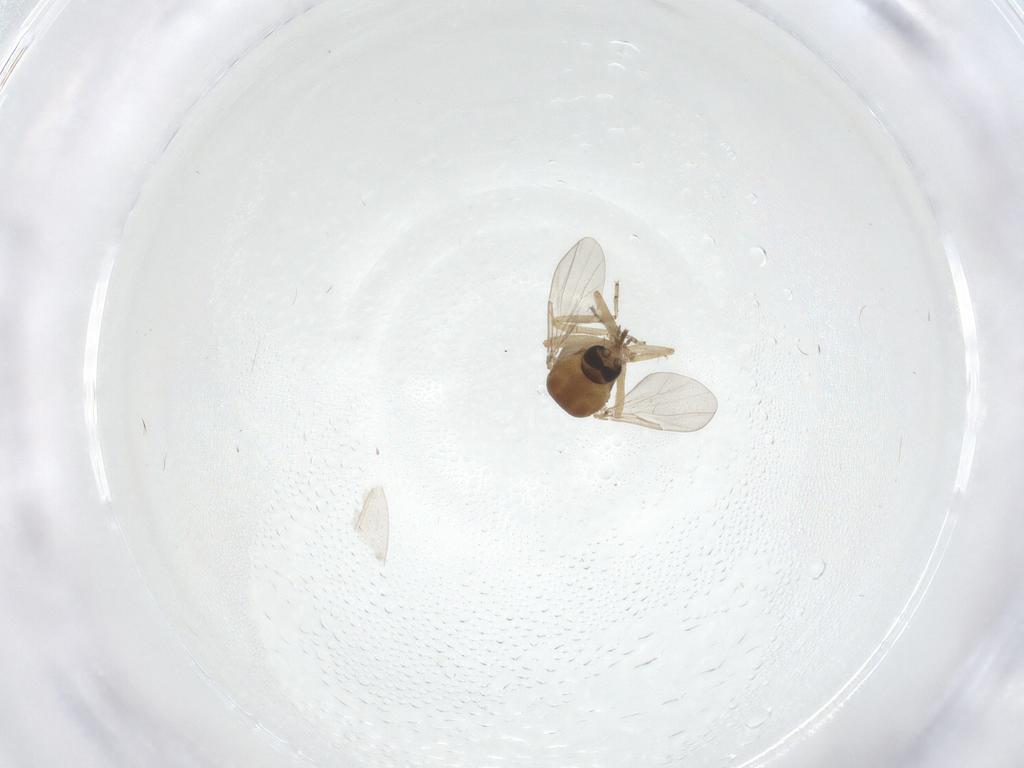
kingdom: Animalia
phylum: Arthropoda
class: Insecta
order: Diptera
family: Ceratopogonidae
